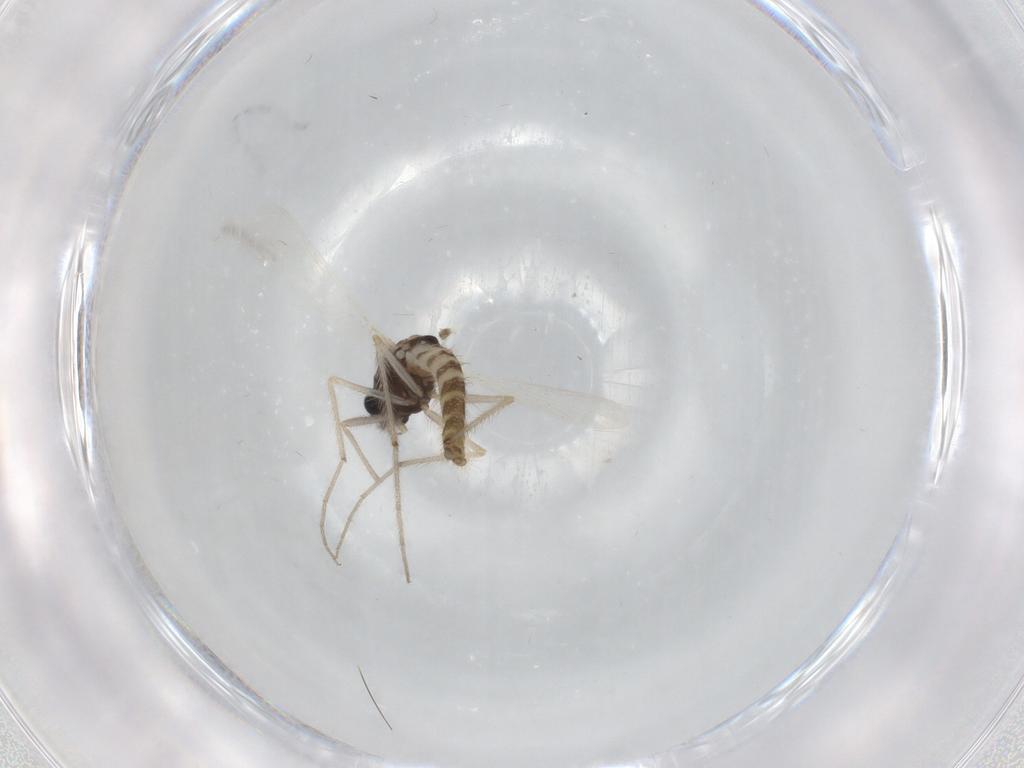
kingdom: Animalia
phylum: Arthropoda
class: Insecta
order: Diptera
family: Chironomidae
